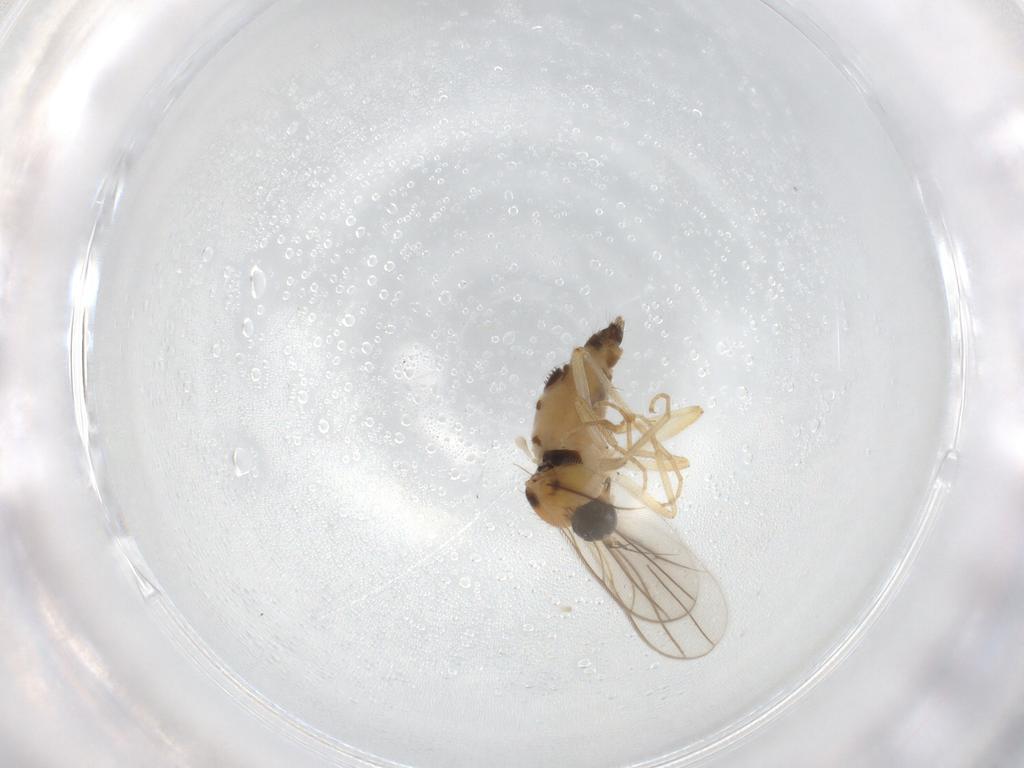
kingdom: Animalia
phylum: Arthropoda
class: Insecta
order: Diptera
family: Hybotidae
